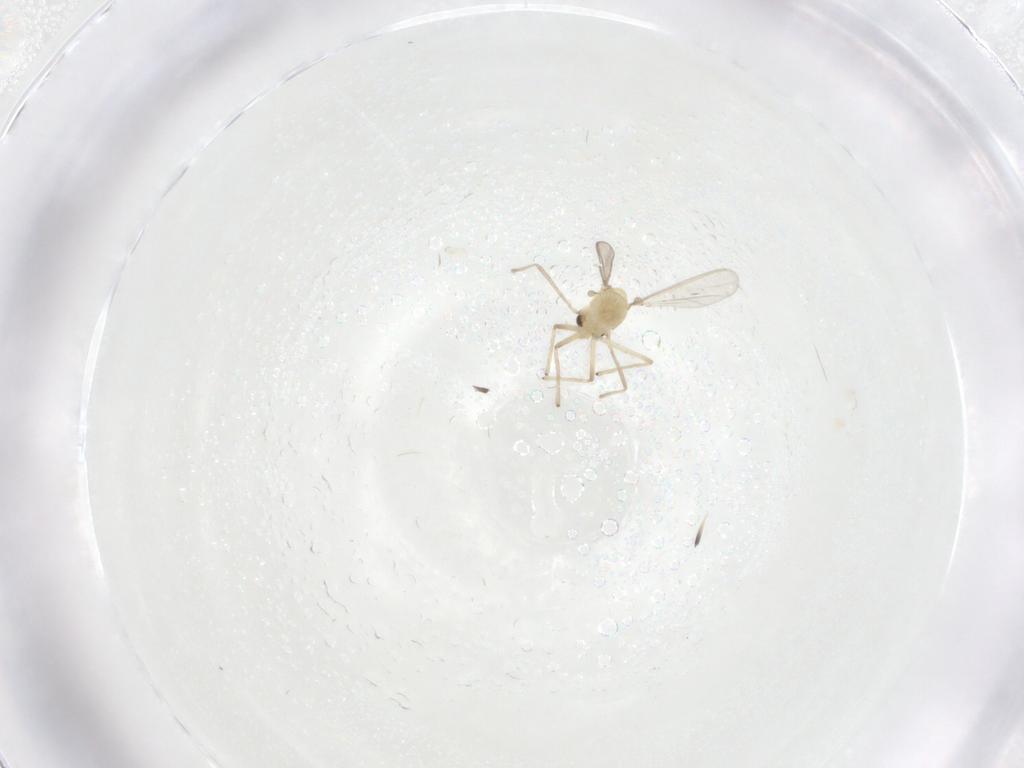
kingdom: Animalia
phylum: Arthropoda
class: Insecta
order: Diptera
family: Chironomidae
